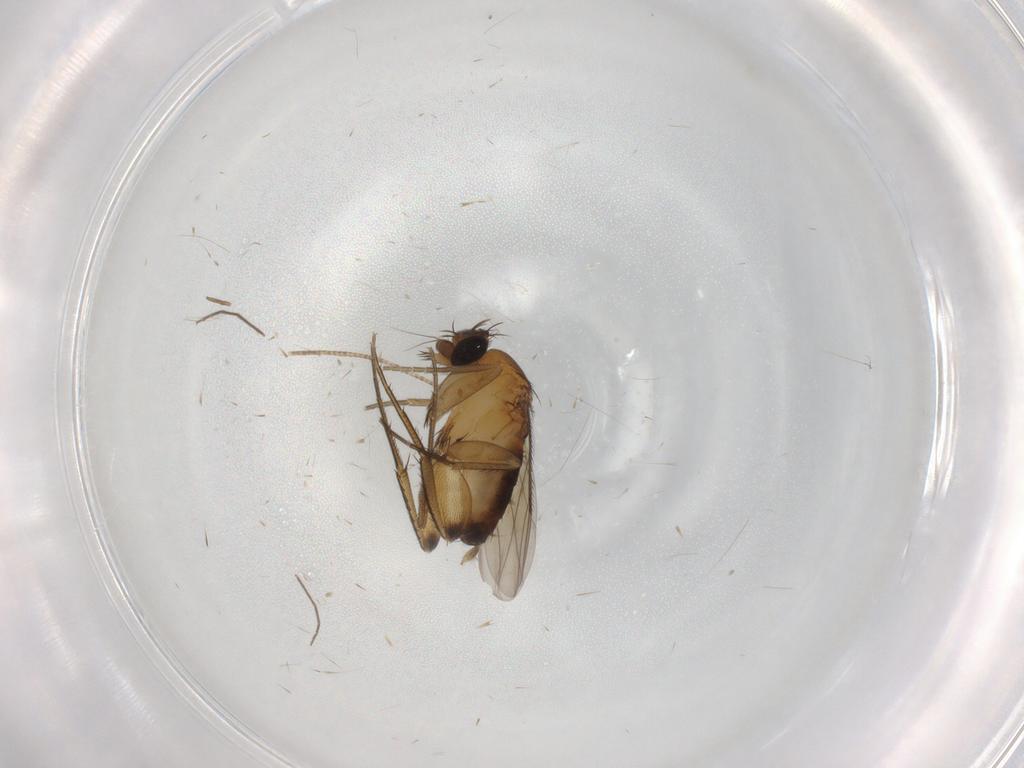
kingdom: Animalia
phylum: Arthropoda
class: Insecta
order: Diptera
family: Phoridae
